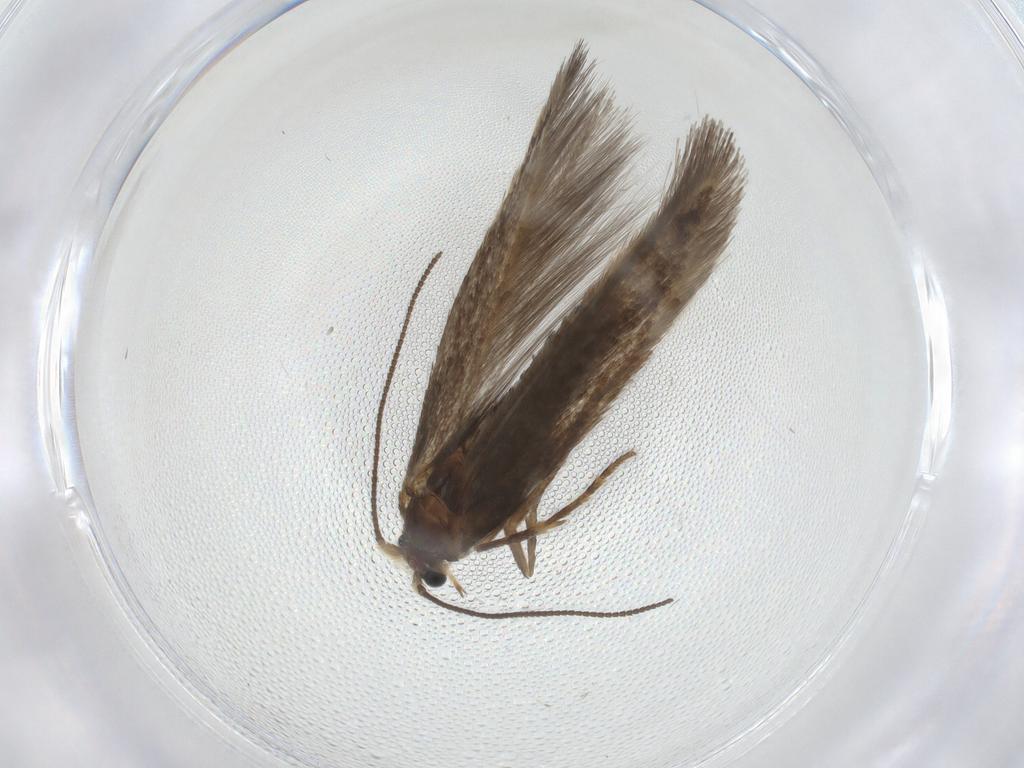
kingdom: Animalia
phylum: Arthropoda
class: Insecta
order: Lepidoptera
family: Nepticulidae
